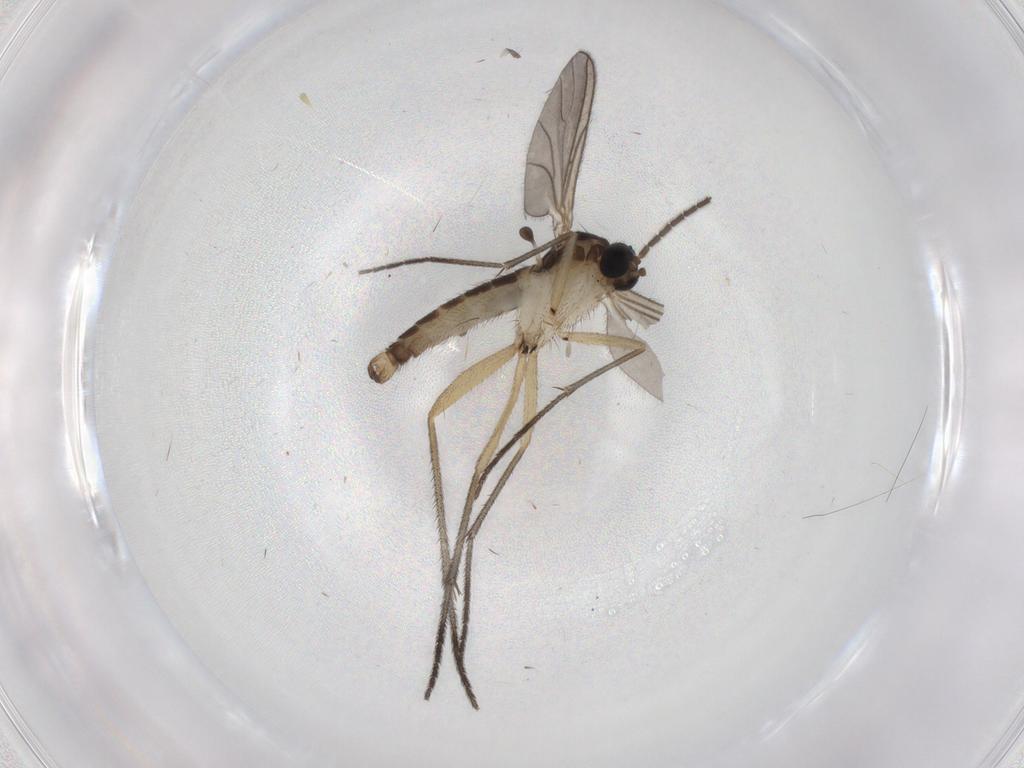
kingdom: Animalia
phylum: Arthropoda
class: Insecta
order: Diptera
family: Sciaridae
